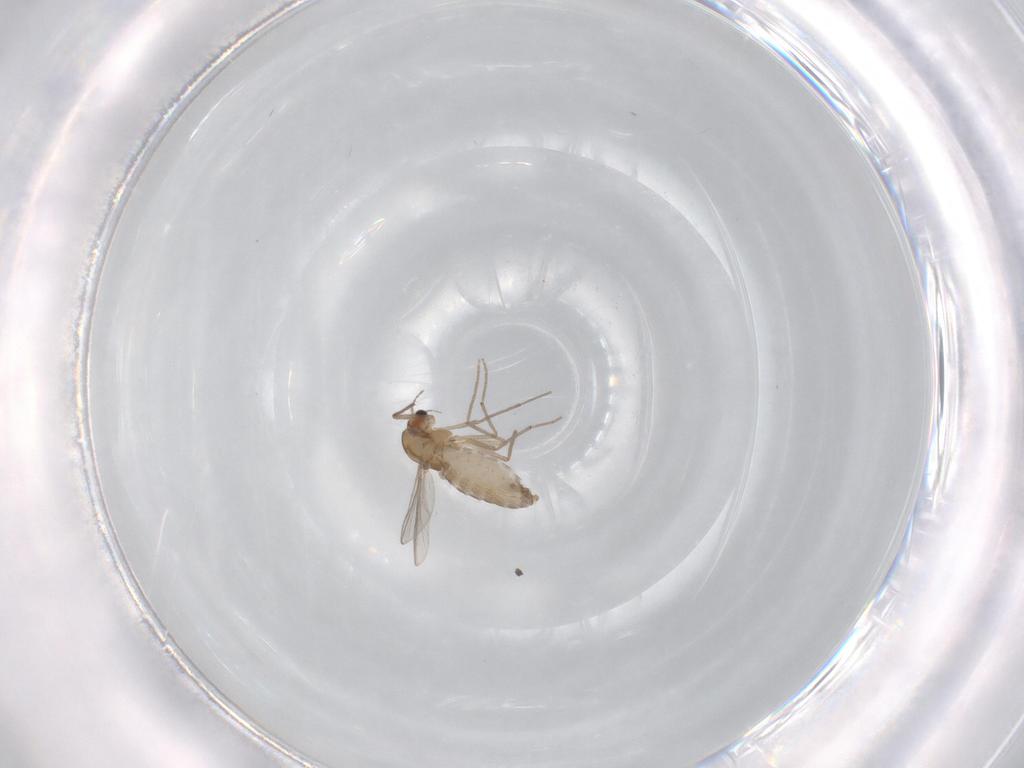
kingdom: Animalia
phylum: Arthropoda
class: Insecta
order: Diptera
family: Chironomidae
